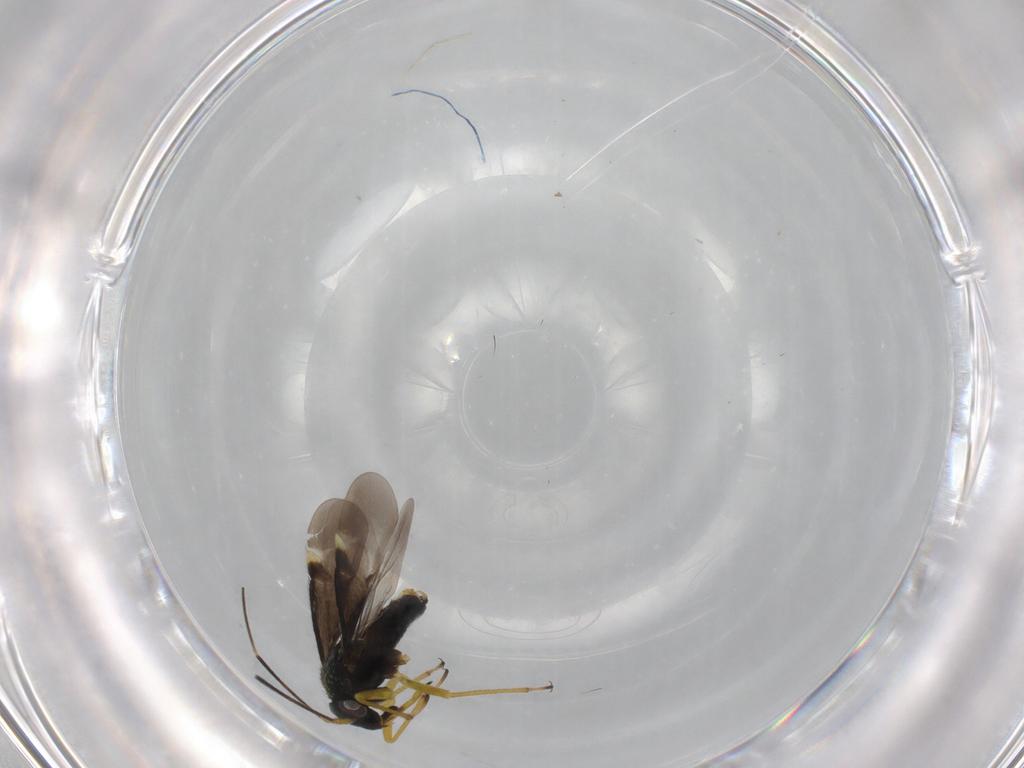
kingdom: Animalia
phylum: Arthropoda
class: Insecta
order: Hemiptera
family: Miridae
